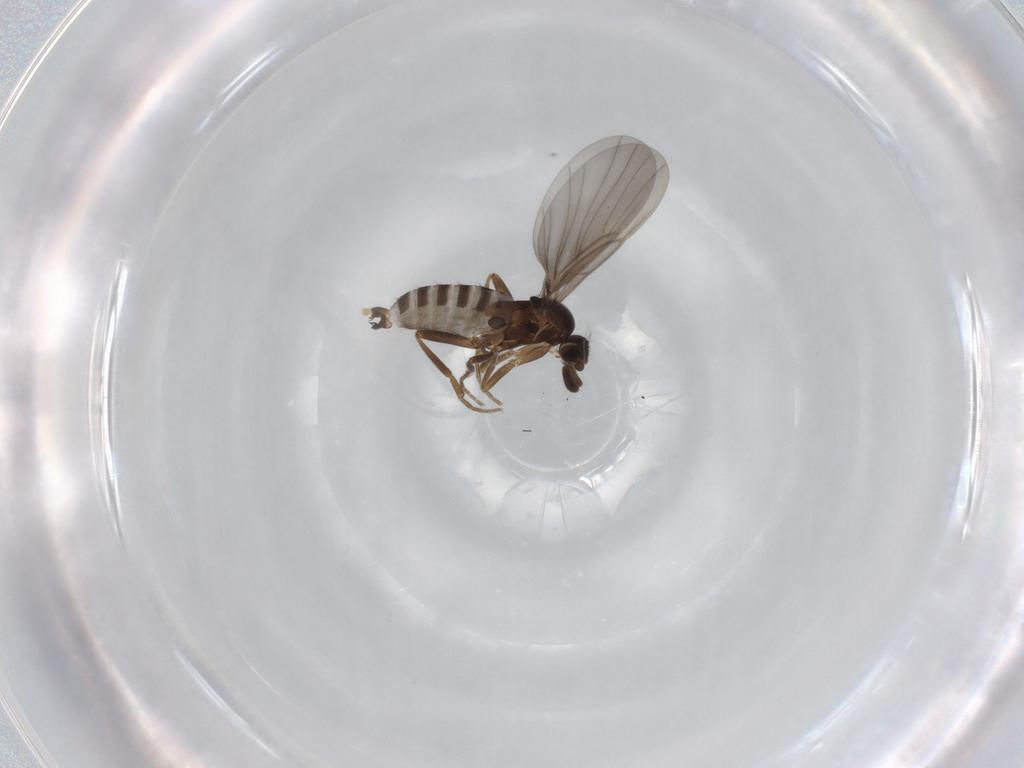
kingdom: Animalia
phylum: Arthropoda
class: Insecta
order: Diptera
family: Phoridae
